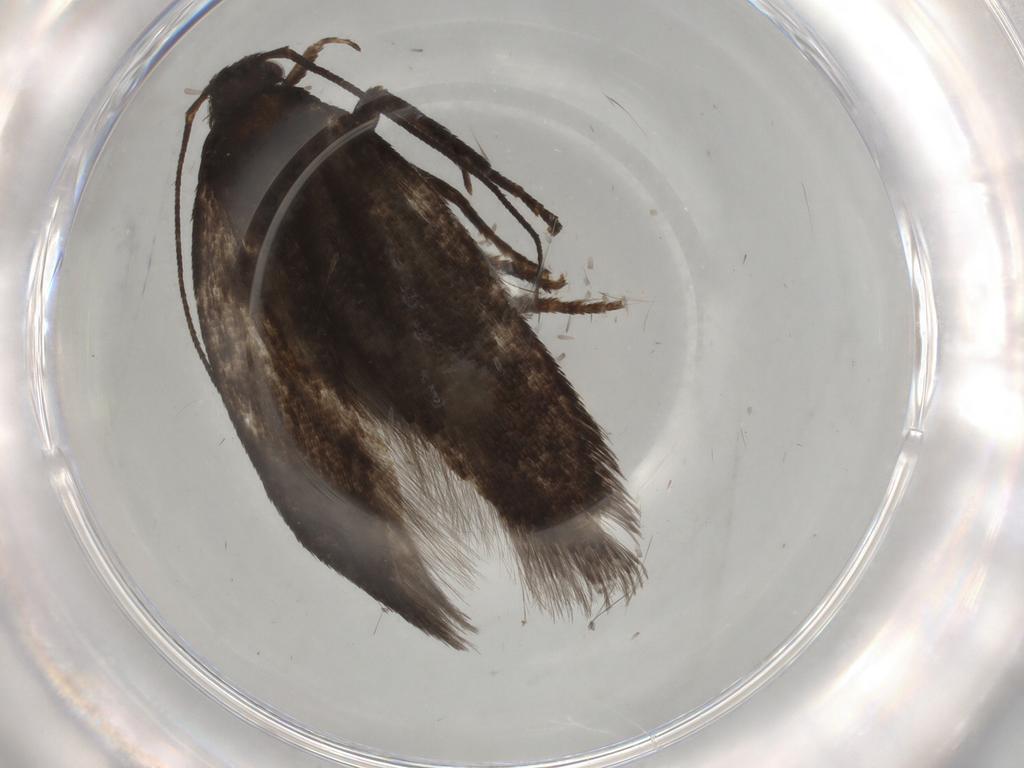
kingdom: Animalia
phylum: Arthropoda
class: Insecta
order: Lepidoptera
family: Gelechiidae
